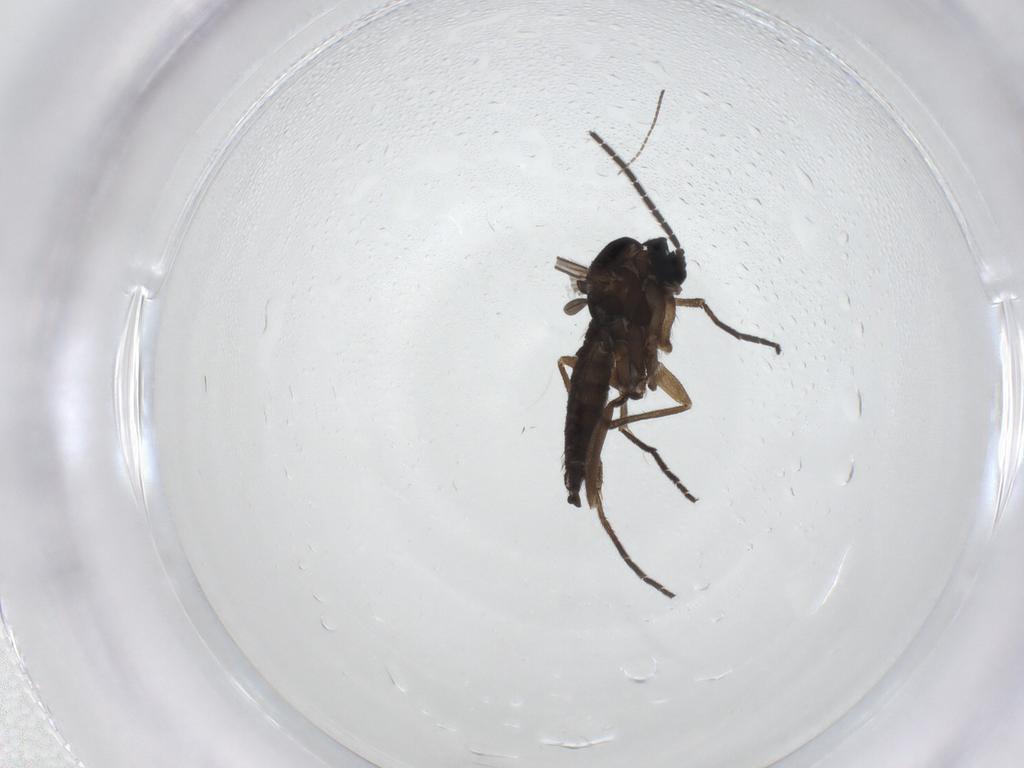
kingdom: Animalia
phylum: Arthropoda
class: Insecta
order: Diptera
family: Sciaridae
